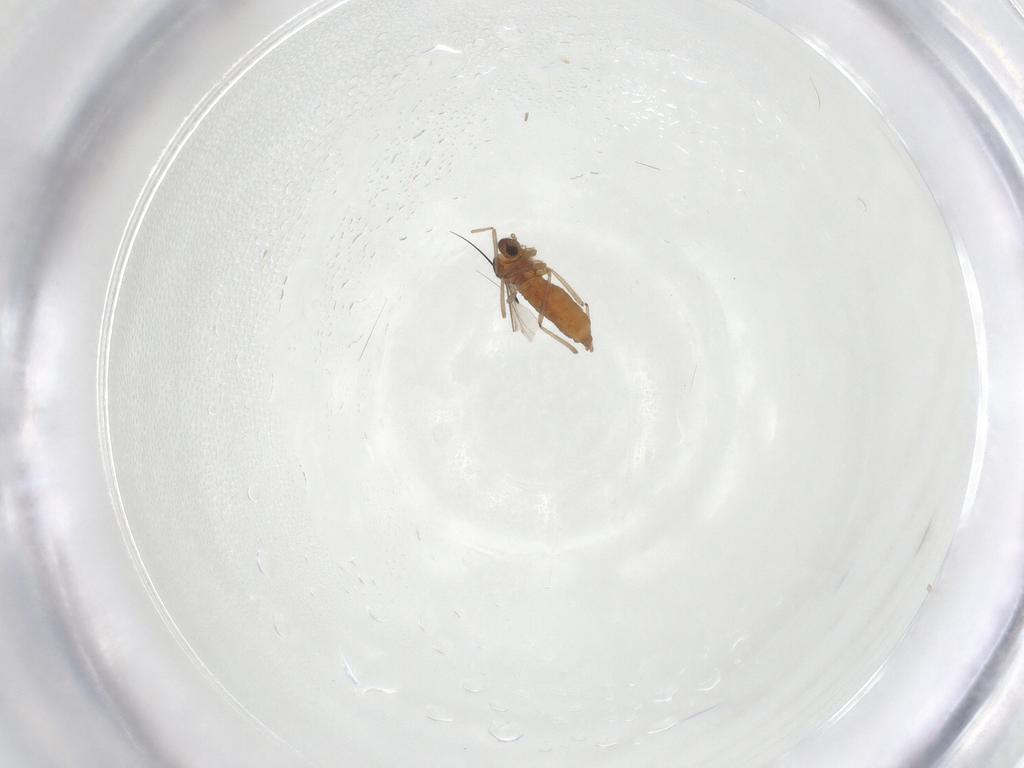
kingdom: Animalia
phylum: Arthropoda
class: Insecta
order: Diptera
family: Cecidomyiidae
